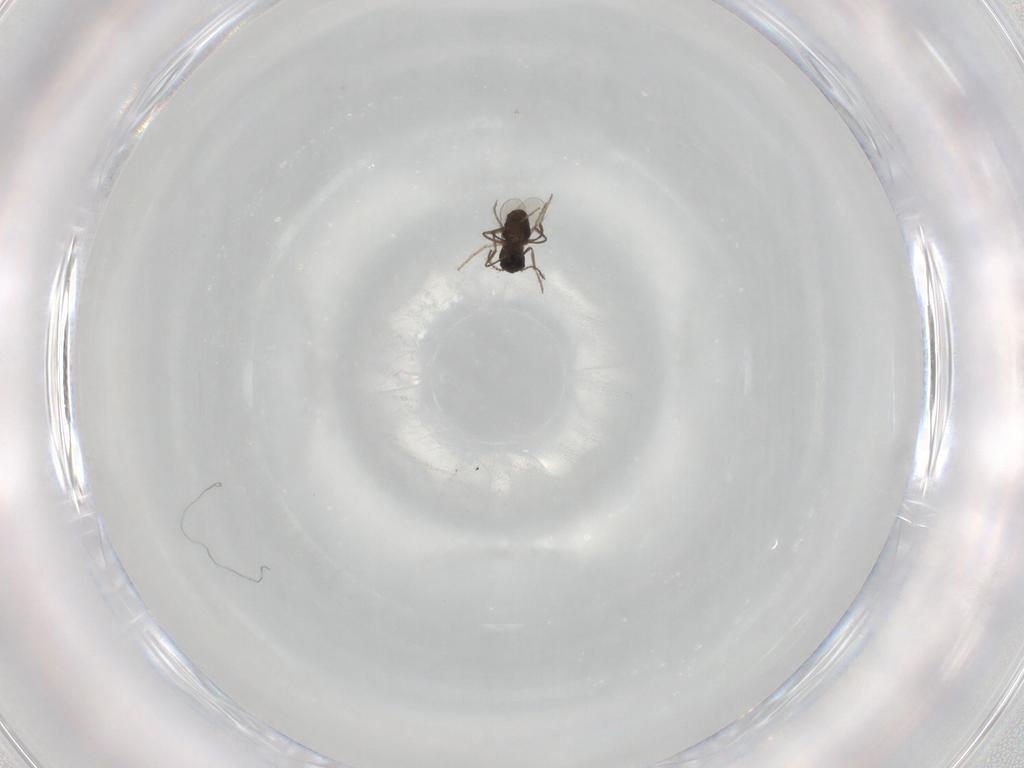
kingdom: Animalia
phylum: Arthropoda
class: Insecta
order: Diptera
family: Ceratopogonidae
